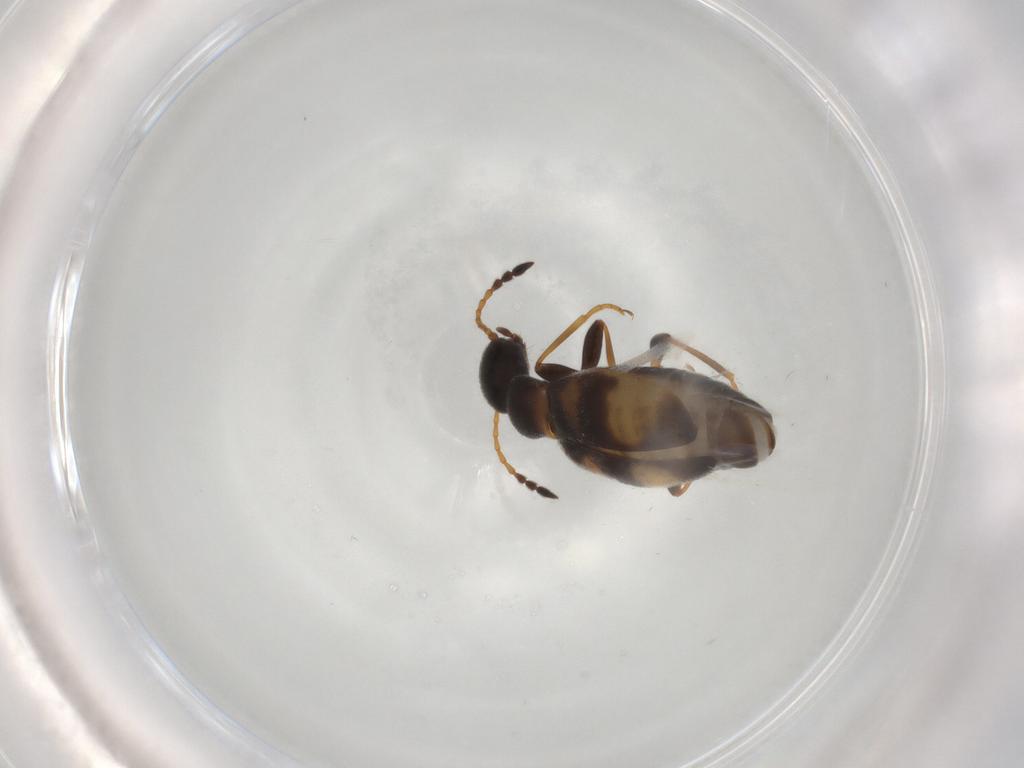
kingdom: Animalia
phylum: Arthropoda
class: Insecta
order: Coleoptera
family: Anthicidae
